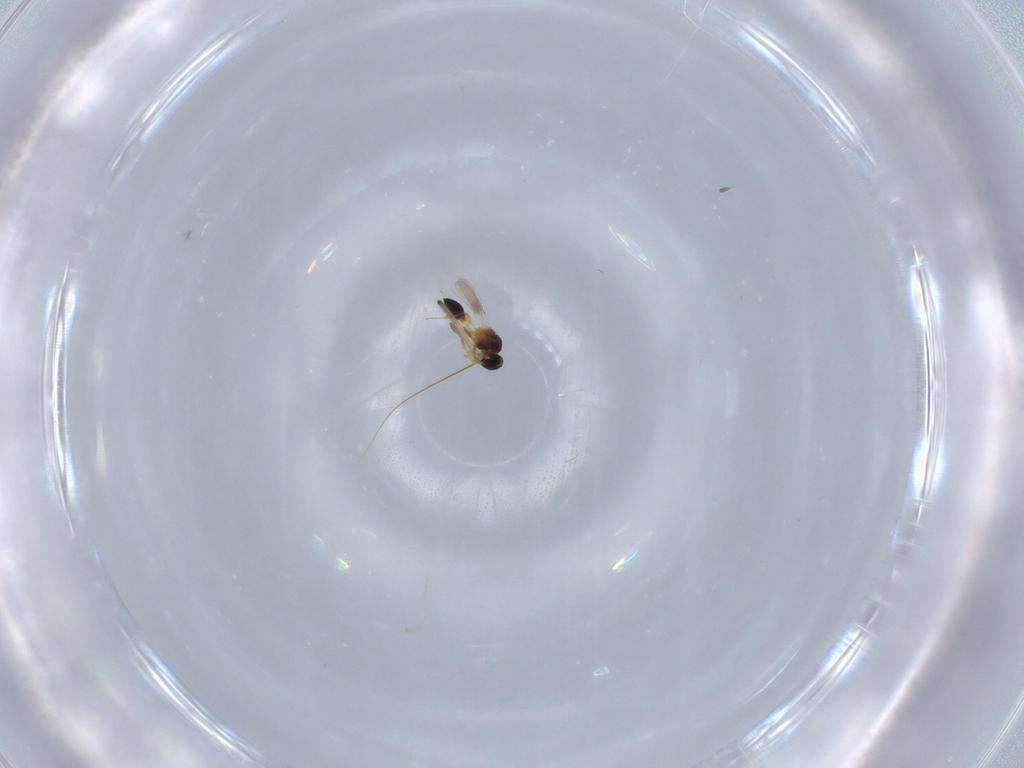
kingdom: Animalia
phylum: Arthropoda
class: Insecta
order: Hymenoptera
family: Platygastridae
